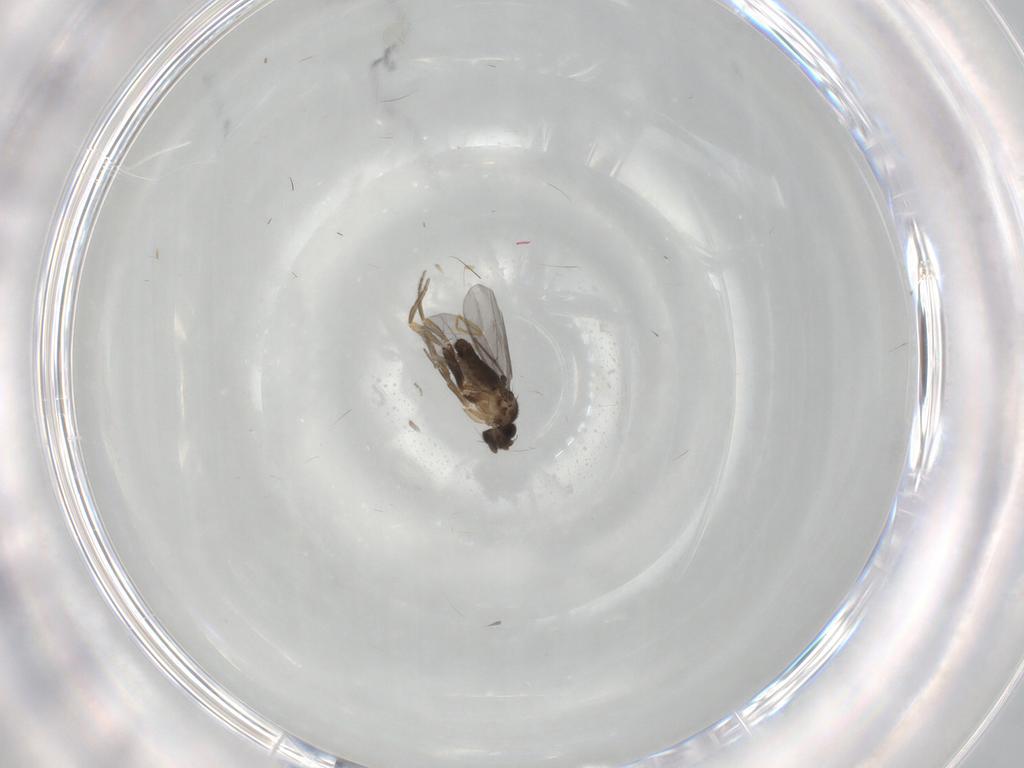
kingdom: Animalia
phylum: Arthropoda
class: Insecta
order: Diptera
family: Cecidomyiidae
